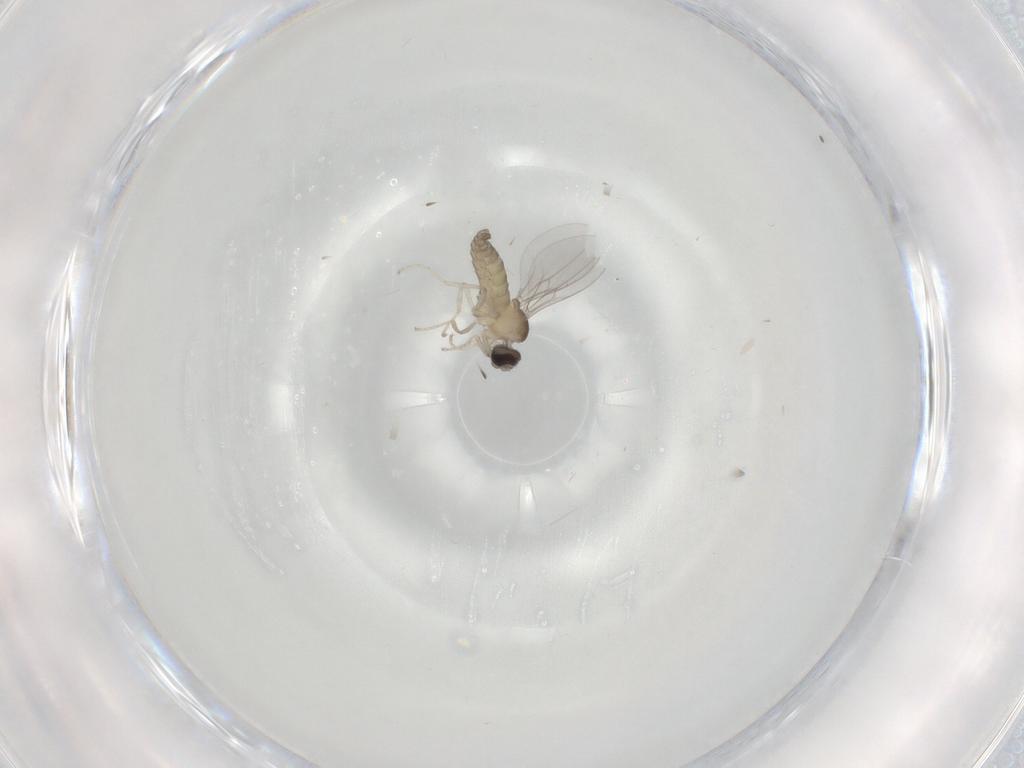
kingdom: Animalia
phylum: Arthropoda
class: Insecta
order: Diptera
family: Cecidomyiidae
